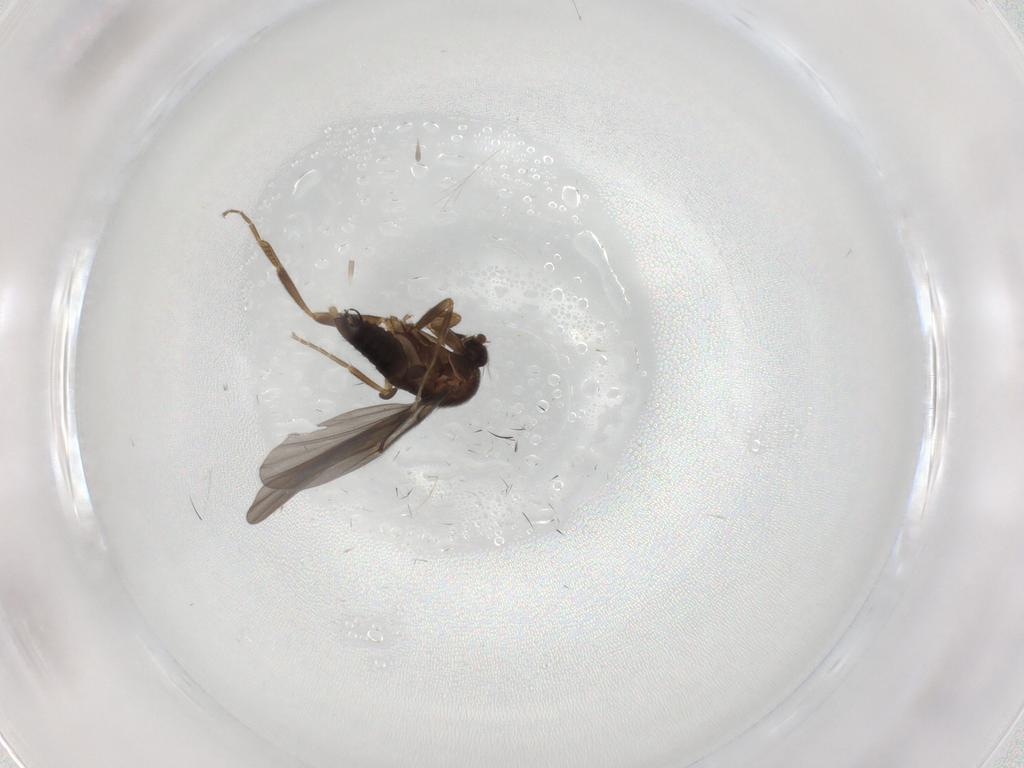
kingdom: Animalia
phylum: Arthropoda
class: Insecta
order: Diptera
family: Phoridae
